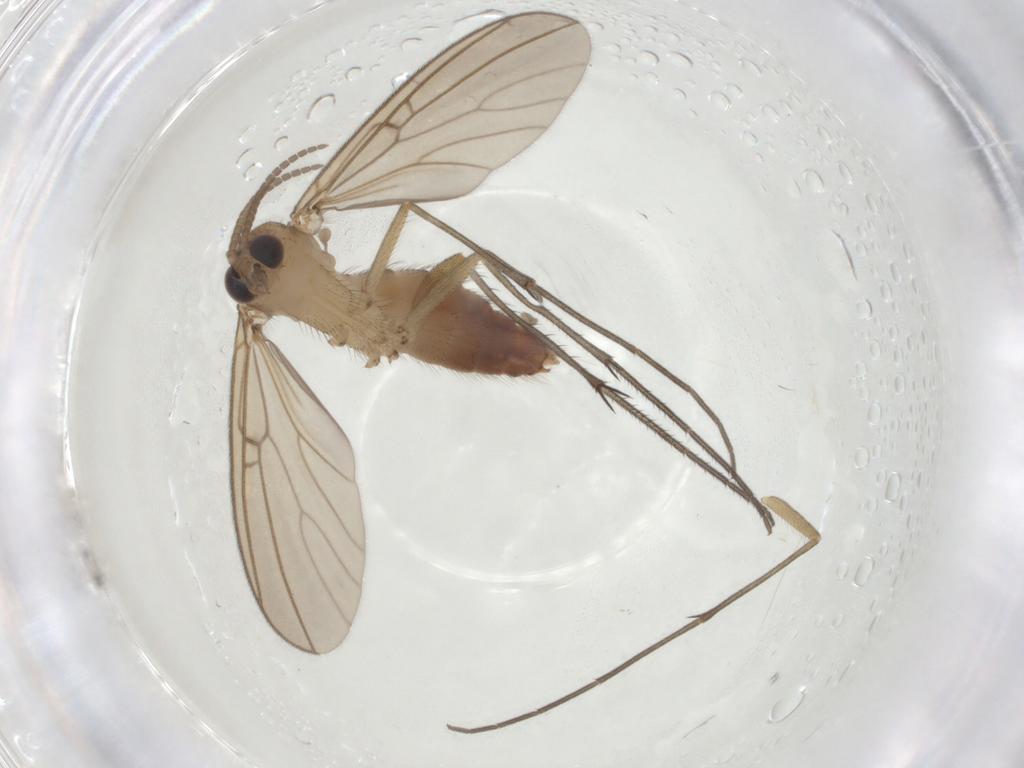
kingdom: Animalia
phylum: Arthropoda
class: Insecta
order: Diptera
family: Mycetophilidae
